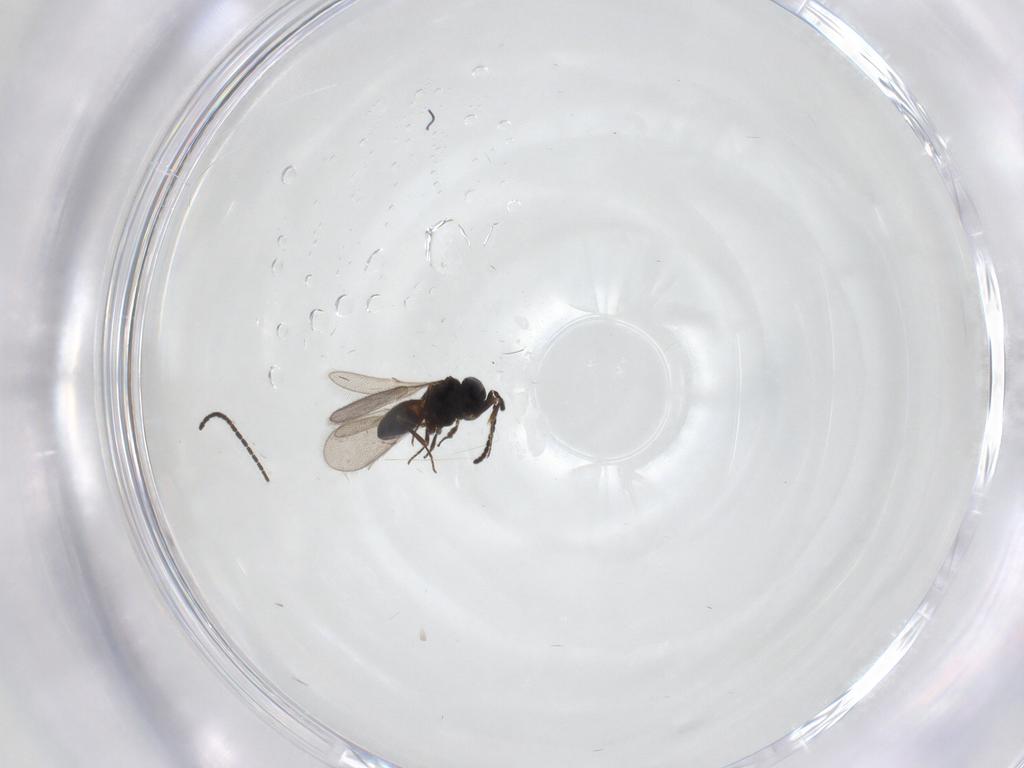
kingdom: Animalia
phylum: Arthropoda
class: Insecta
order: Hymenoptera
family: Scelionidae
